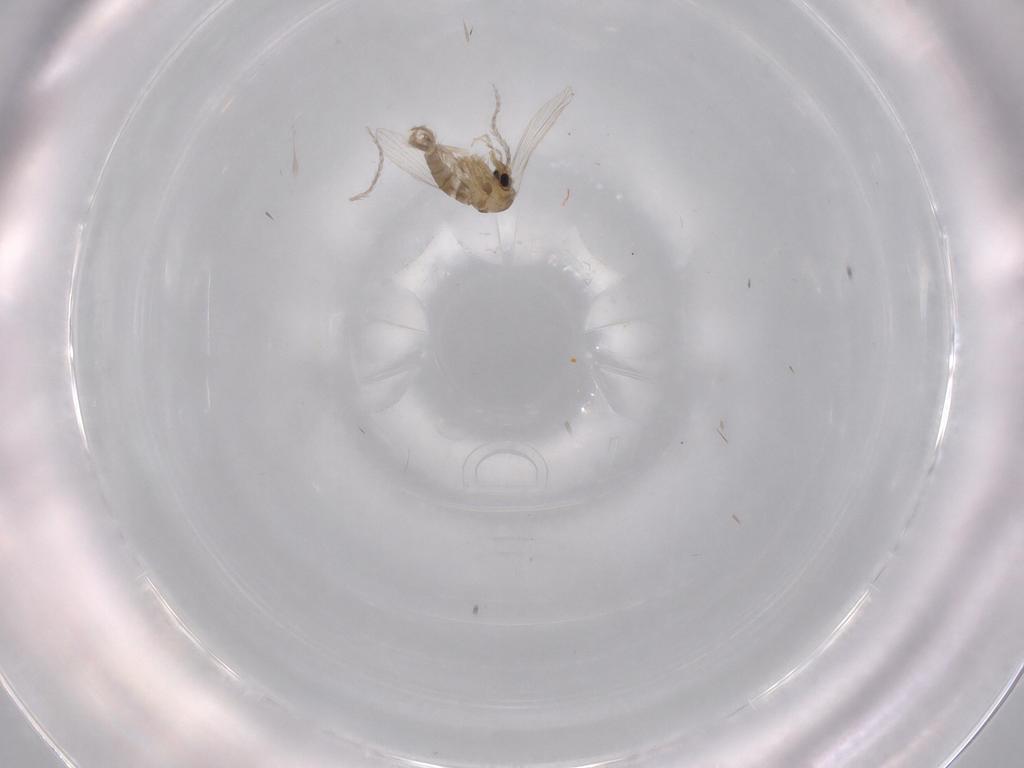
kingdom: Animalia
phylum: Arthropoda
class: Insecta
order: Diptera
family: Psychodidae
